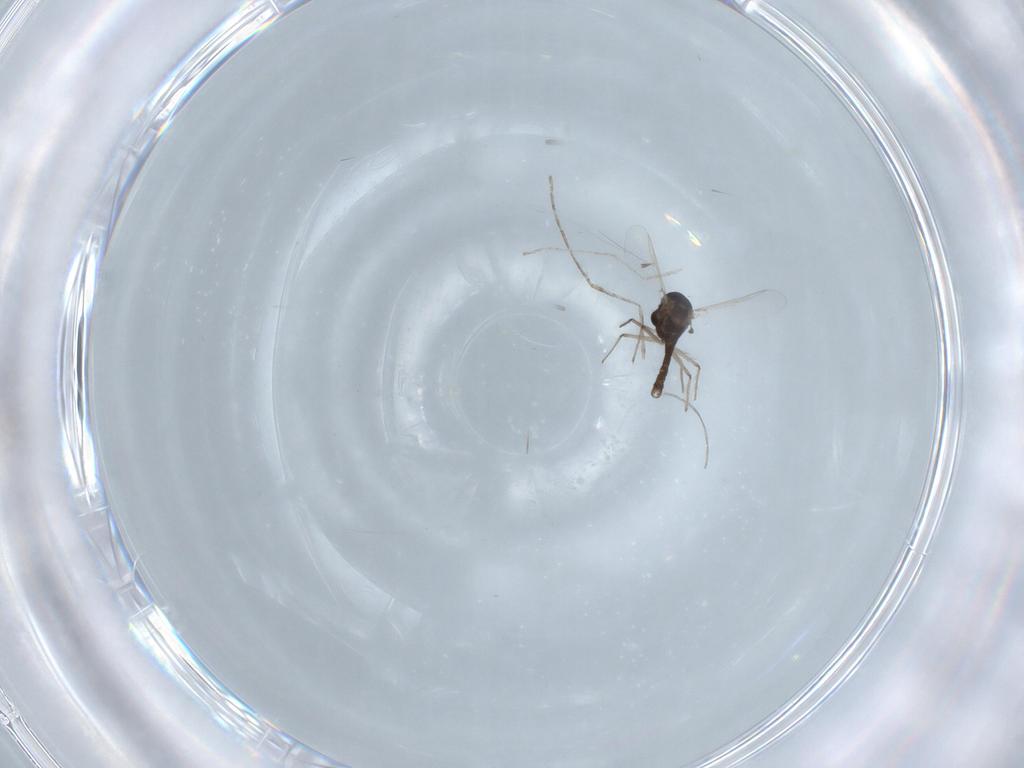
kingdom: Animalia
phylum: Arthropoda
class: Insecta
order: Diptera
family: Chironomidae
